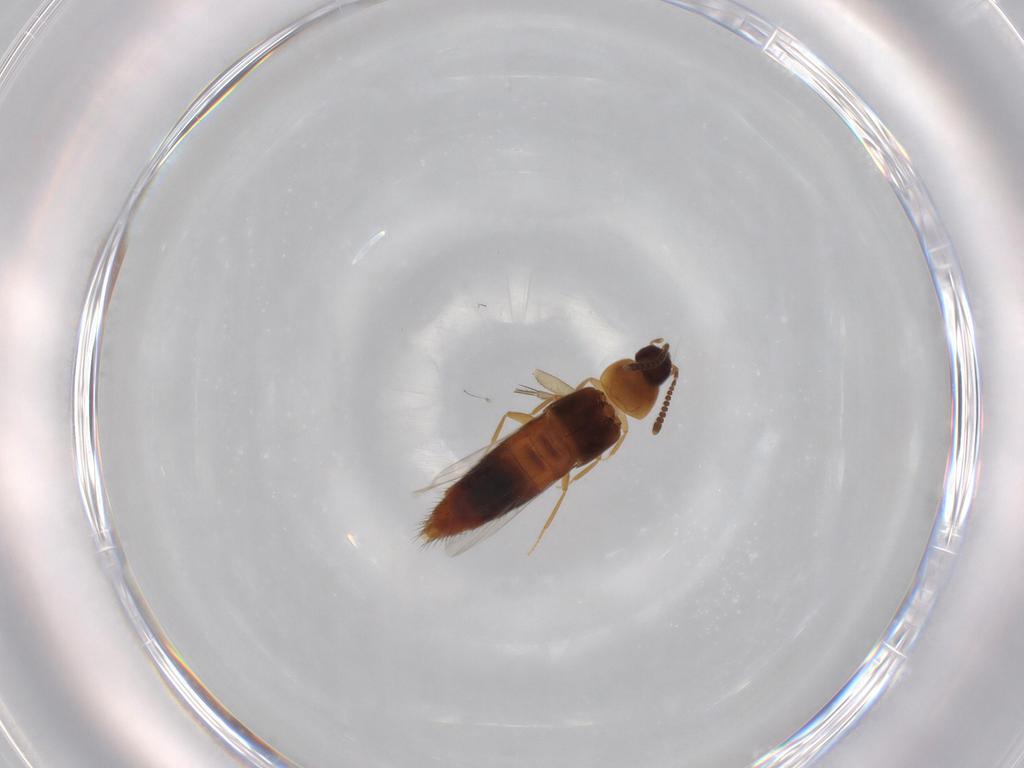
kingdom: Animalia
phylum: Arthropoda
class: Insecta
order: Coleoptera
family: Staphylinidae
